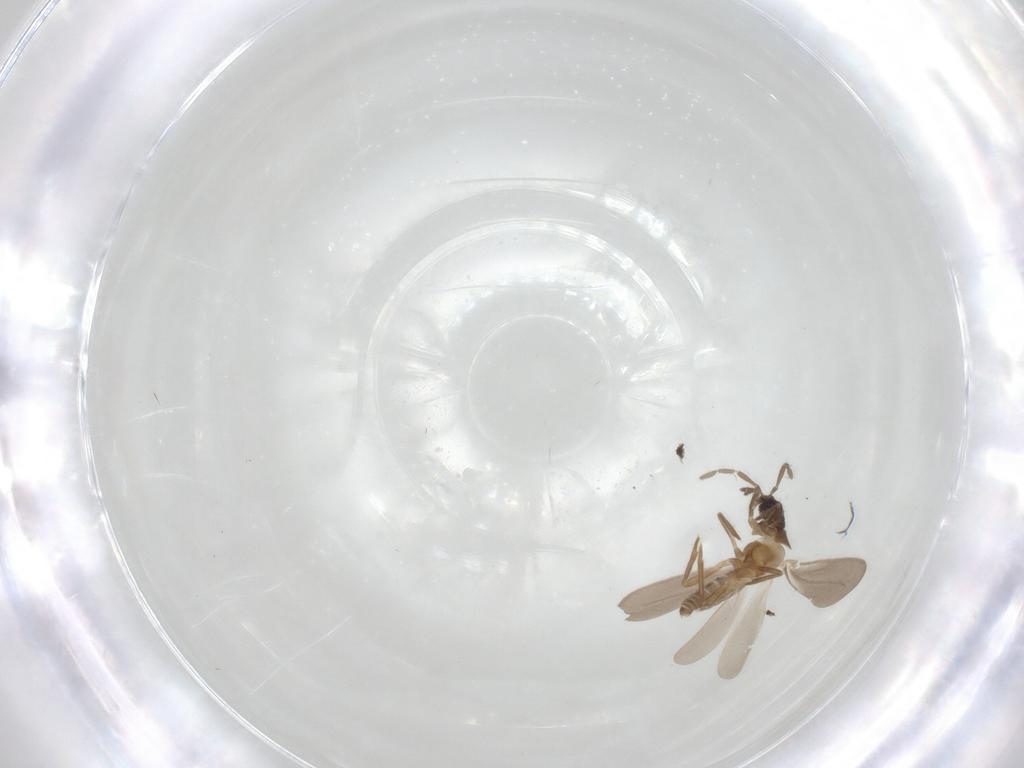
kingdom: Animalia
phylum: Arthropoda
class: Insecta
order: Hemiptera
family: Enicocephalidae
